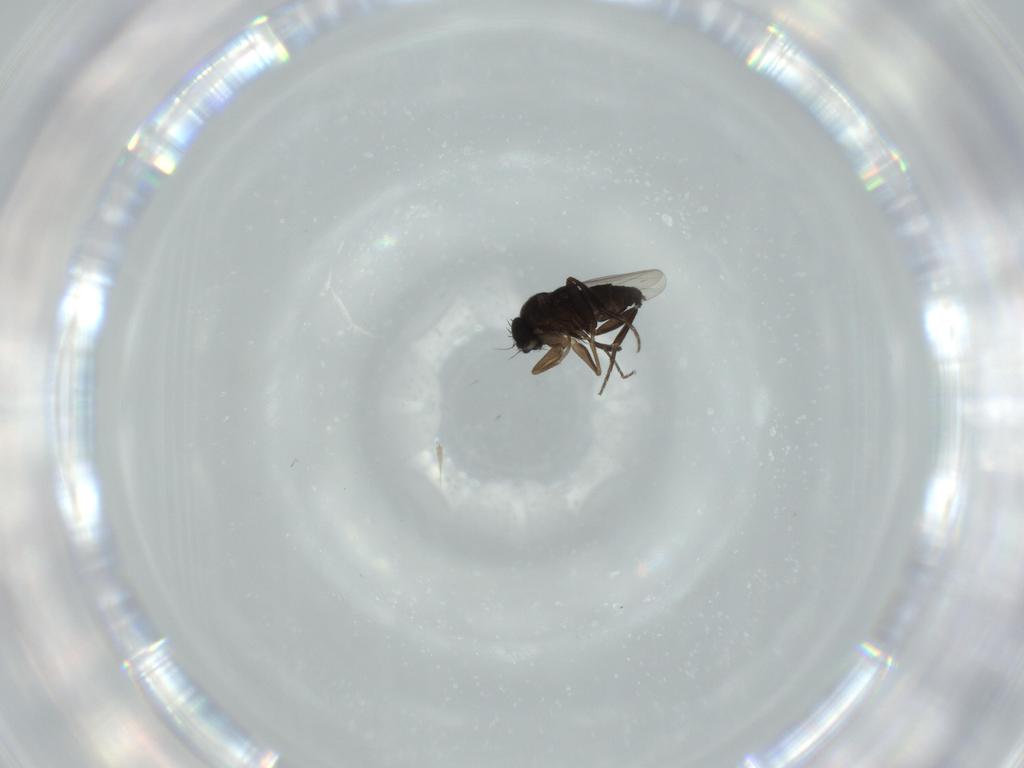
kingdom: Animalia
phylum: Arthropoda
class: Insecta
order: Diptera
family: Phoridae
